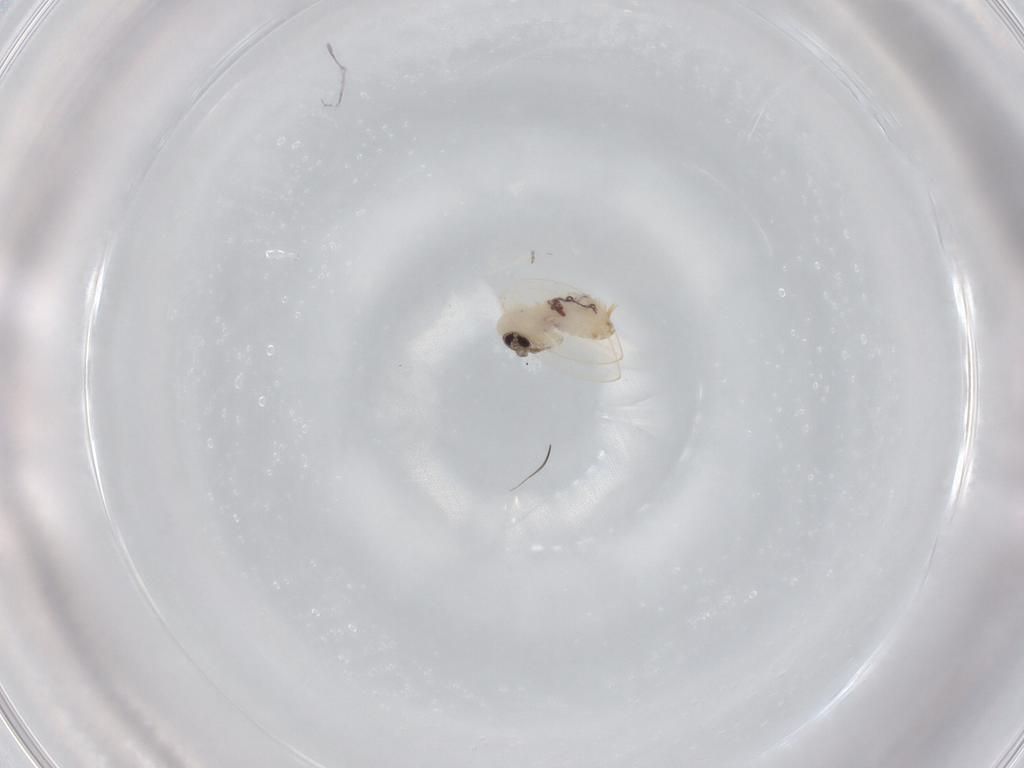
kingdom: Animalia
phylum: Arthropoda
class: Insecta
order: Diptera
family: Psychodidae
